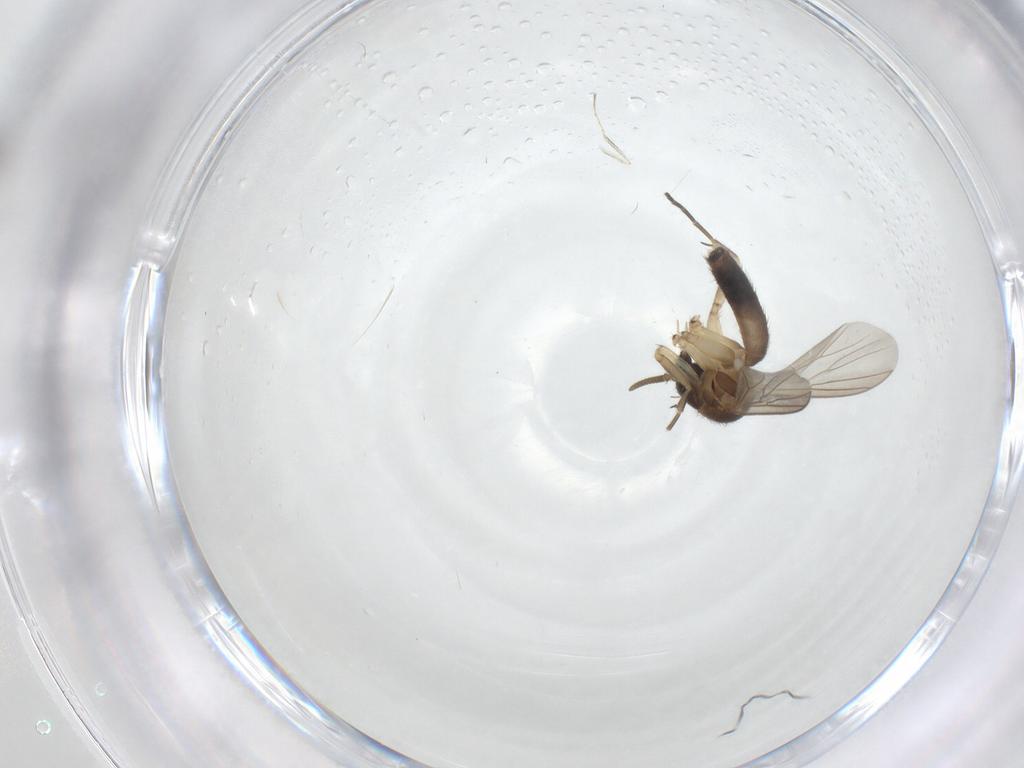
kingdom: Animalia
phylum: Arthropoda
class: Insecta
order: Diptera
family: Mycetophilidae
